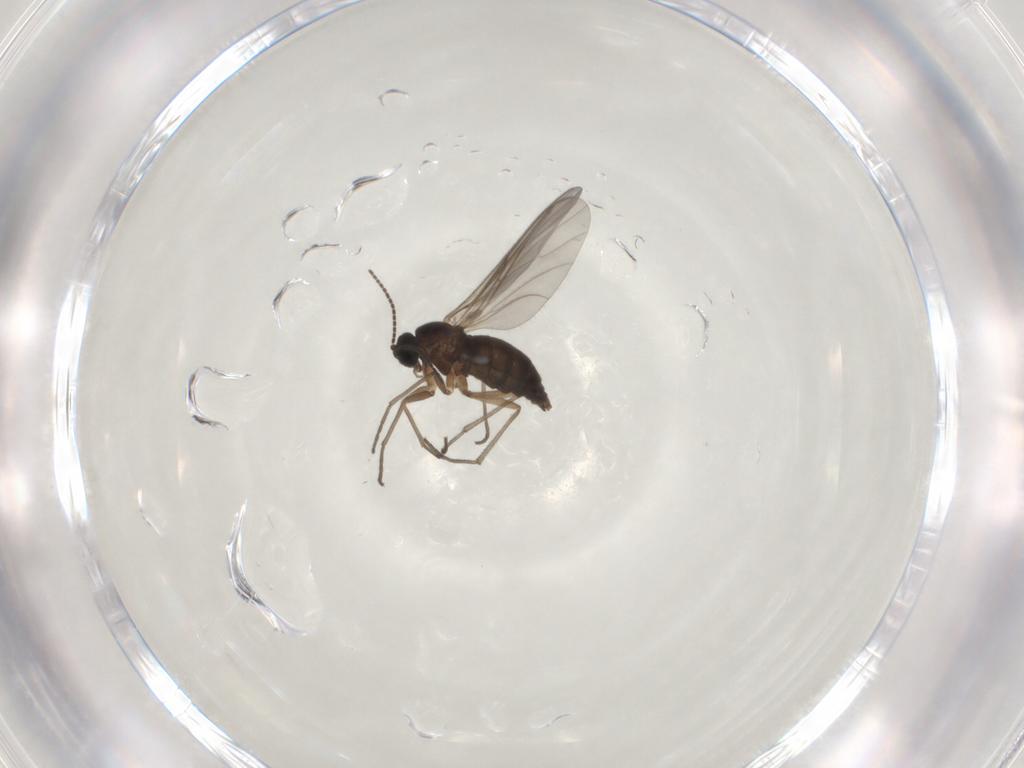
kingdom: Animalia
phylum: Arthropoda
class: Insecta
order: Diptera
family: Sciaridae
